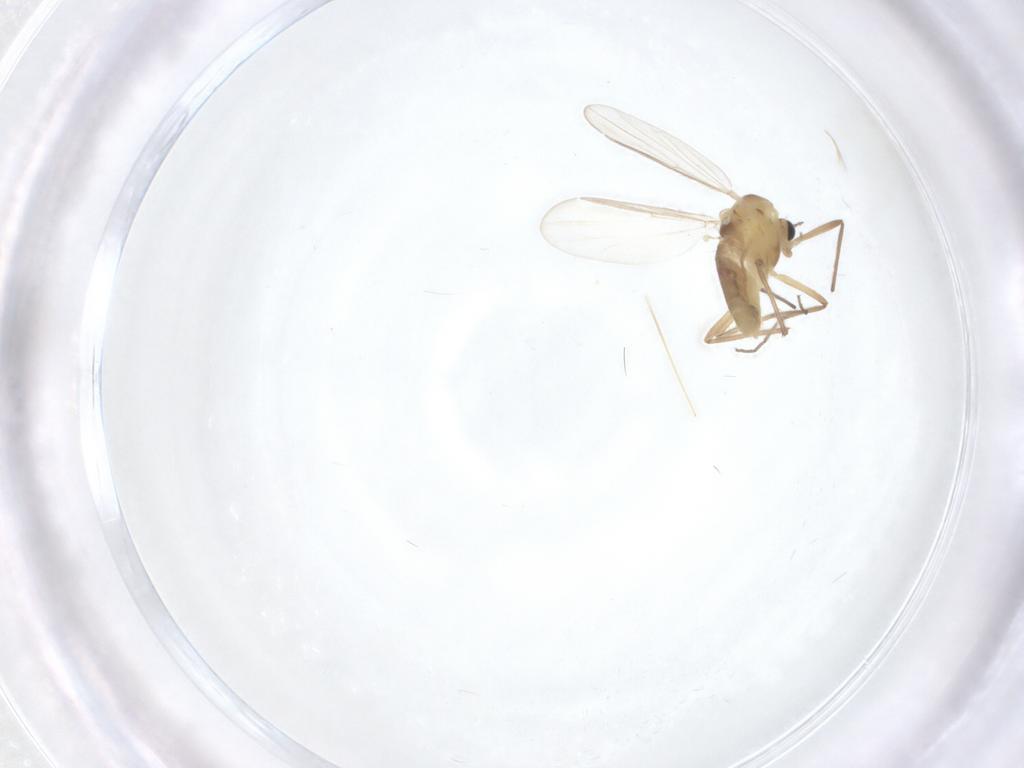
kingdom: Animalia
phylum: Arthropoda
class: Insecta
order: Diptera
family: Chironomidae
